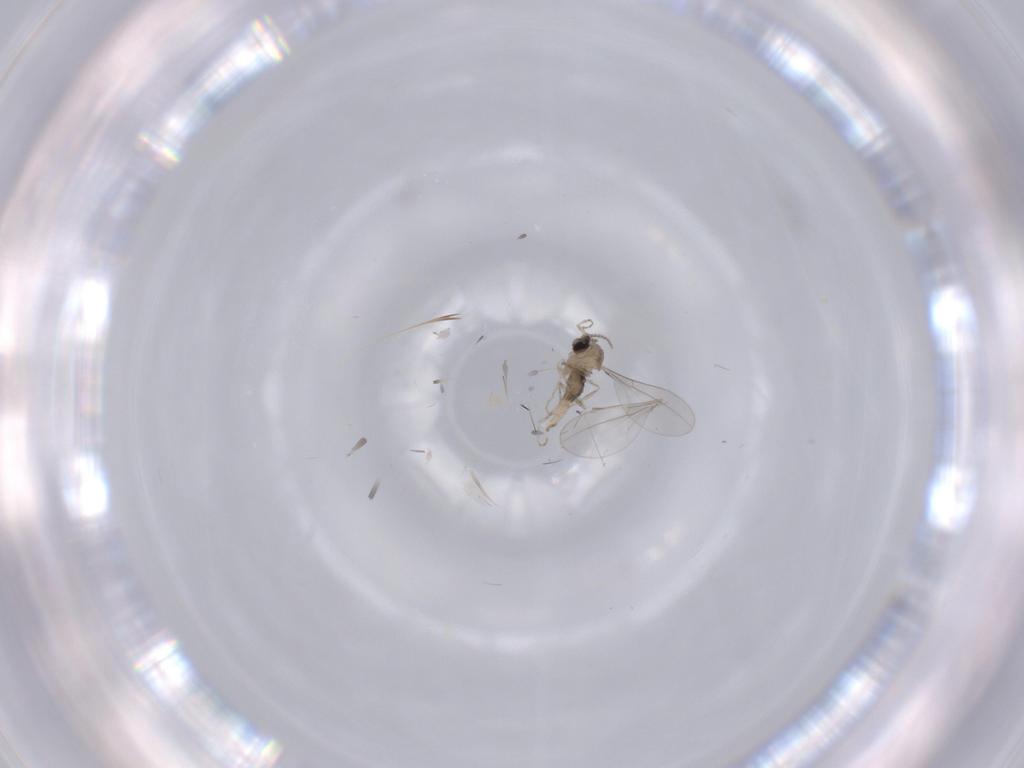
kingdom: Animalia
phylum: Arthropoda
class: Insecta
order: Diptera
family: Cecidomyiidae
